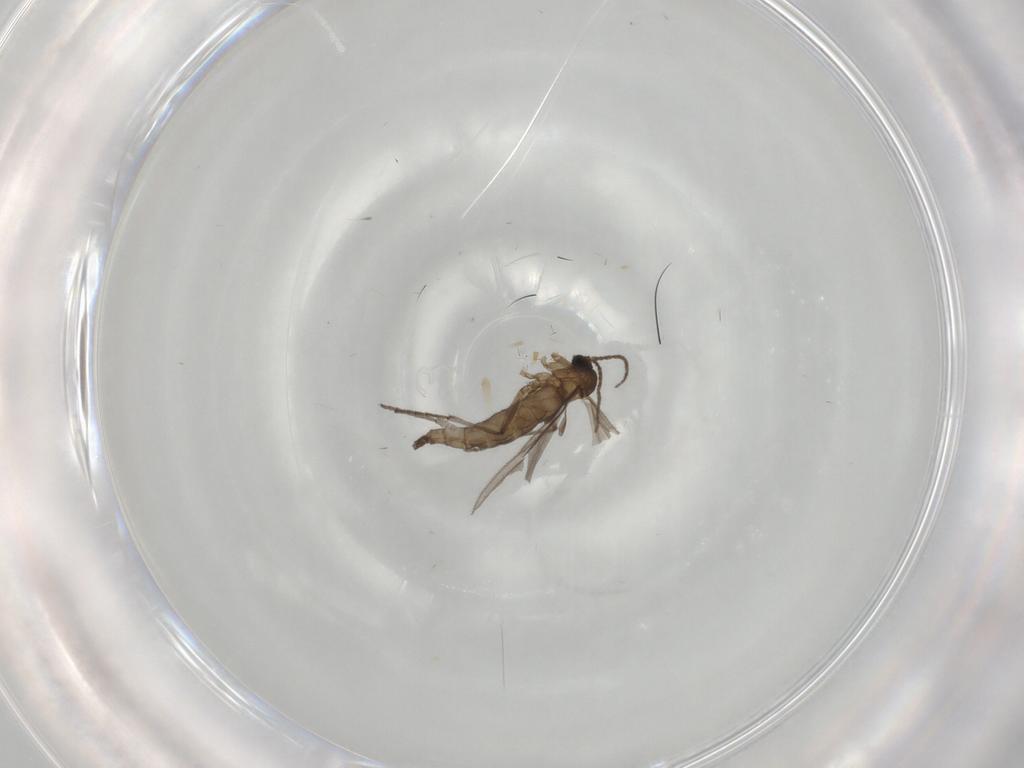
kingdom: Animalia
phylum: Arthropoda
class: Insecta
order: Diptera
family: Sciaridae
